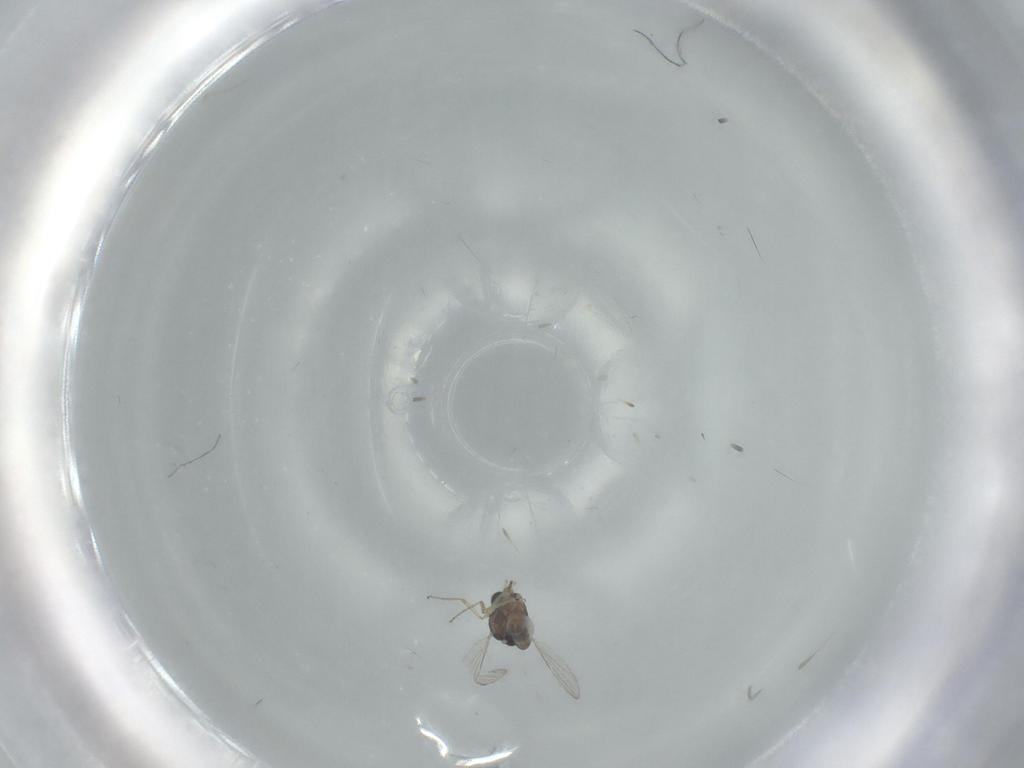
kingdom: Animalia
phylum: Arthropoda
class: Insecta
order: Diptera
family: Ceratopogonidae
